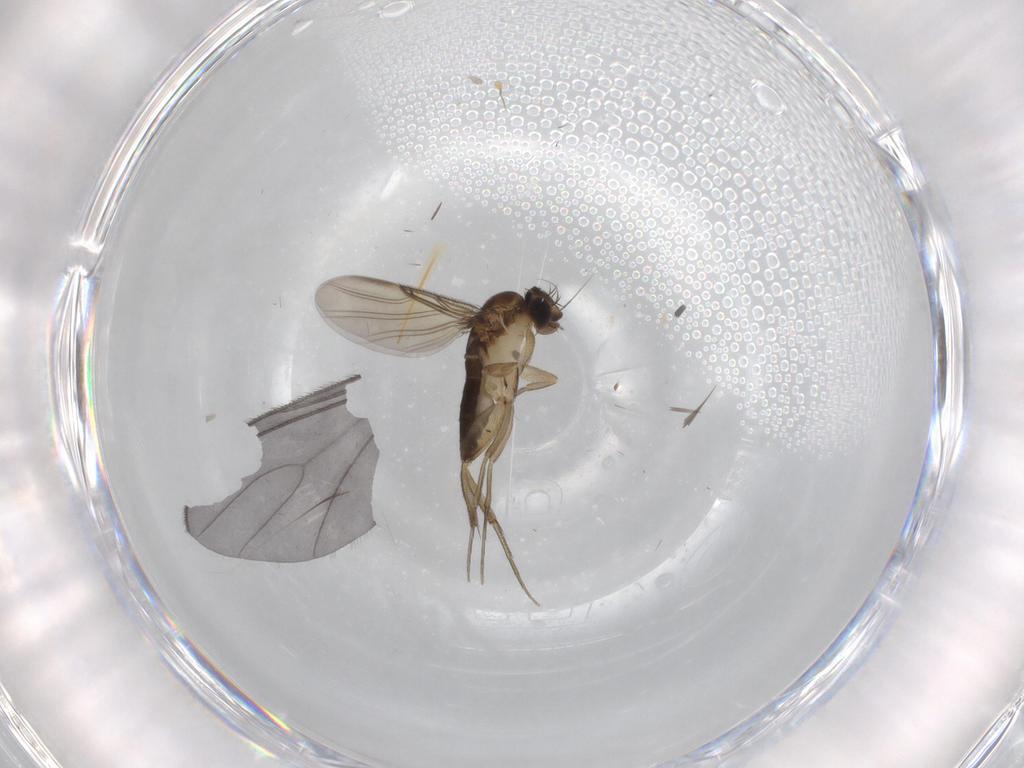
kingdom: Animalia
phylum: Arthropoda
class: Insecta
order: Diptera
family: Phoridae
